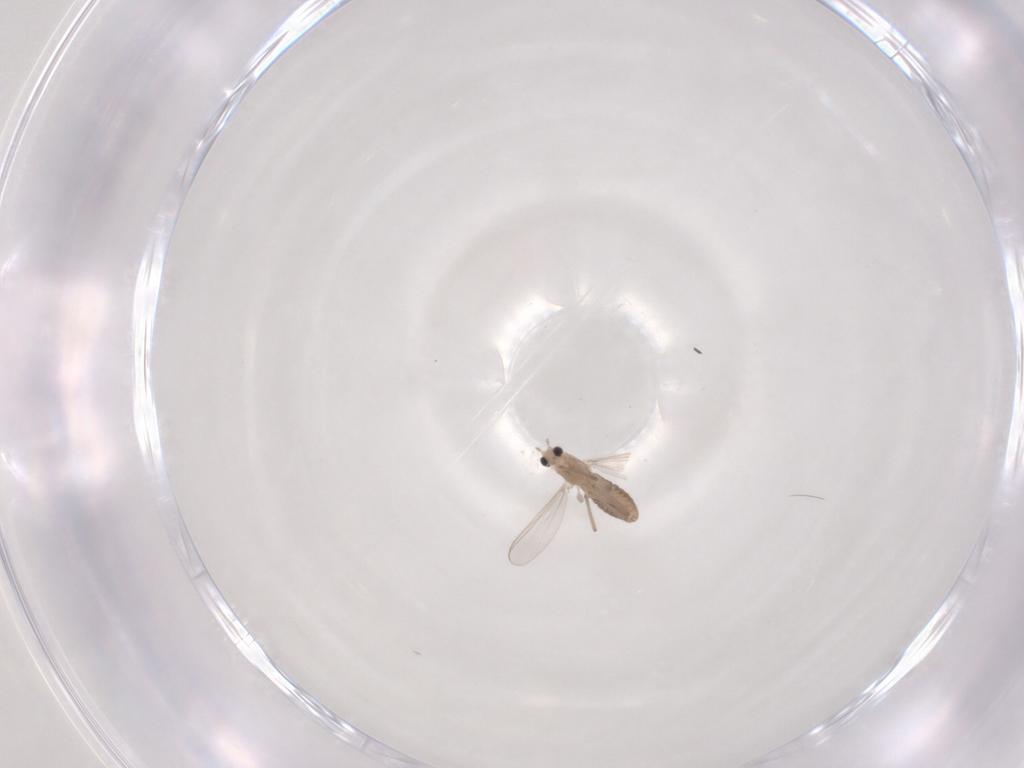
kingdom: Animalia
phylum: Arthropoda
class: Insecta
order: Diptera
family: Chironomidae
